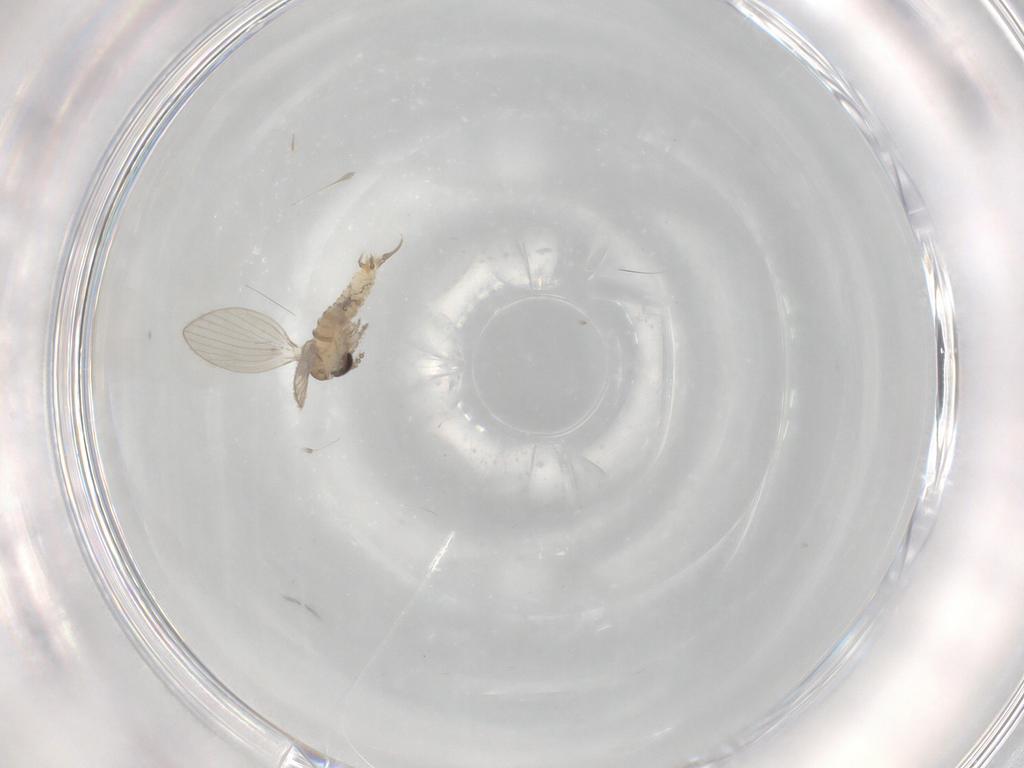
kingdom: Animalia
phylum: Arthropoda
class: Insecta
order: Diptera
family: Psychodidae
